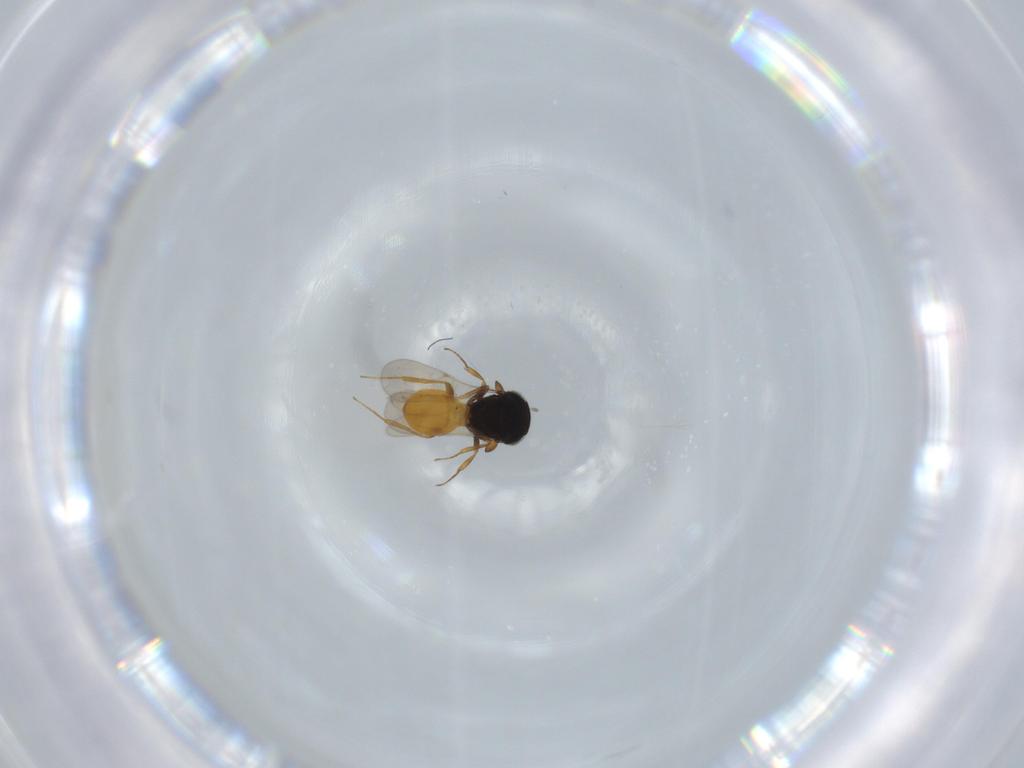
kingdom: Animalia
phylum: Arthropoda
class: Insecta
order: Hymenoptera
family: Scelionidae
